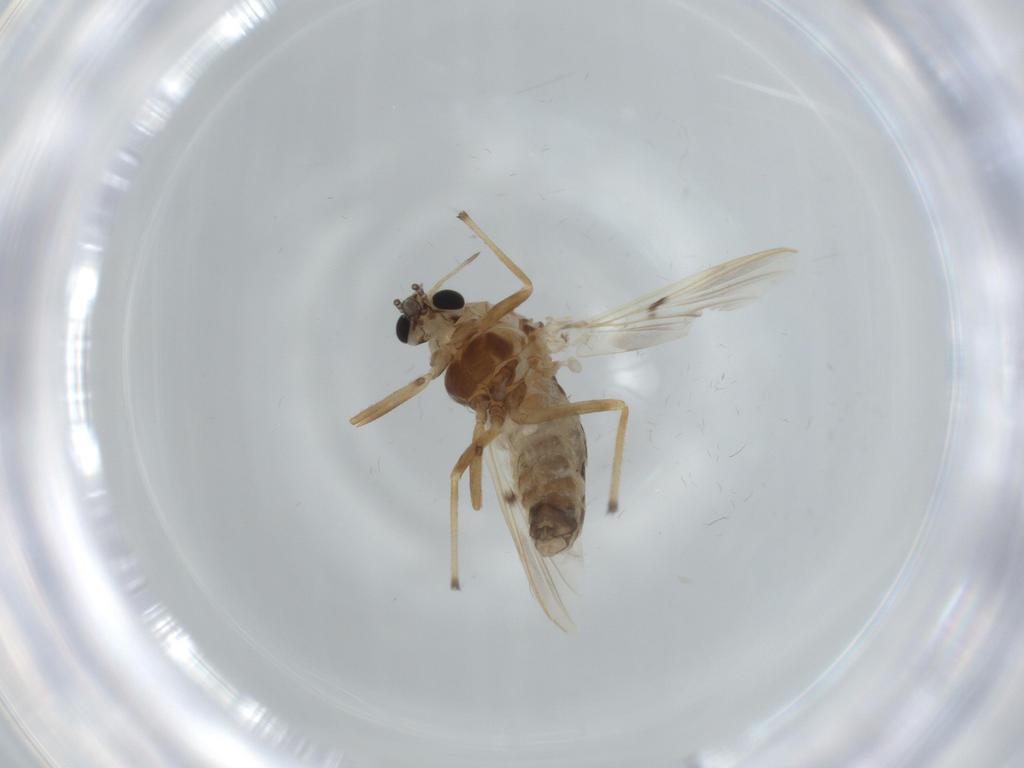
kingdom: Animalia
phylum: Arthropoda
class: Insecta
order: Diptera
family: Chironomidae
